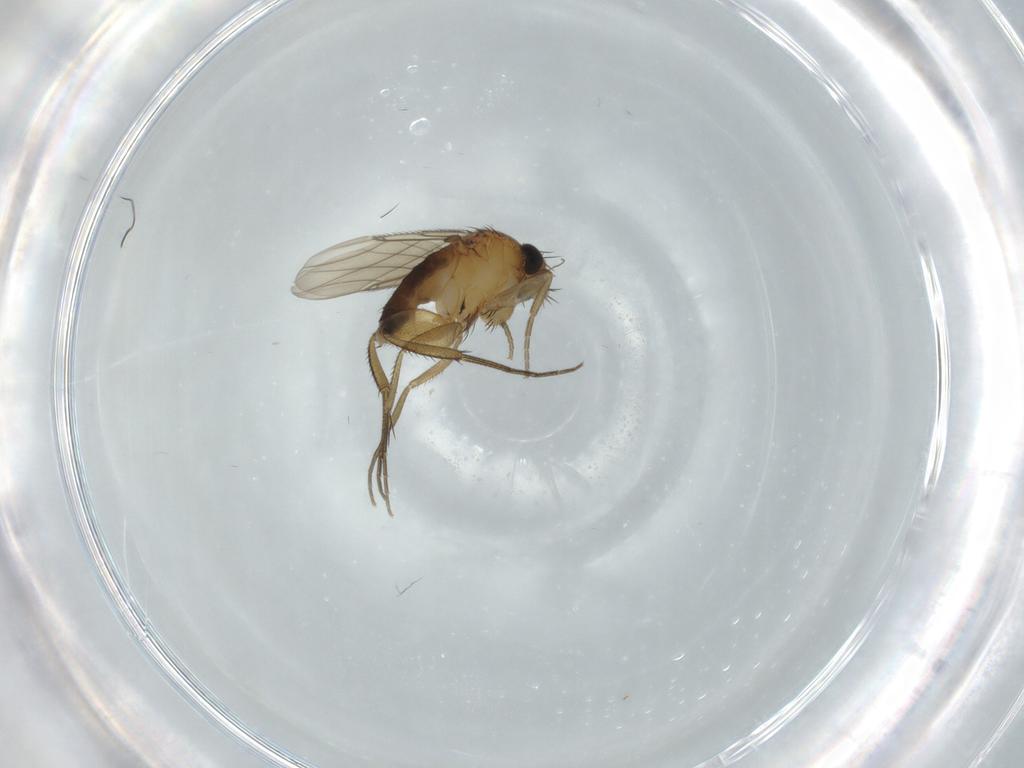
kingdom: Animalia
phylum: Arthropoda
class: Insecta
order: Diptera
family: Phoridae
